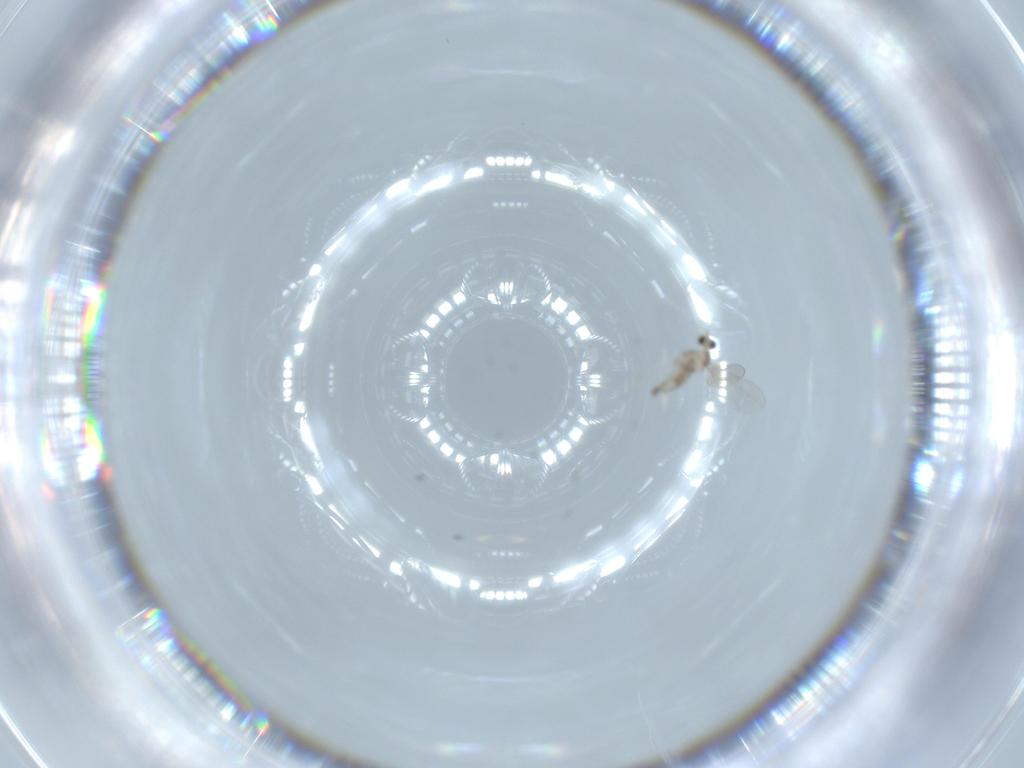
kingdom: Animalia
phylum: Arthropoda
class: Insecta
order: Diptera
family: Cecidomyiidae
